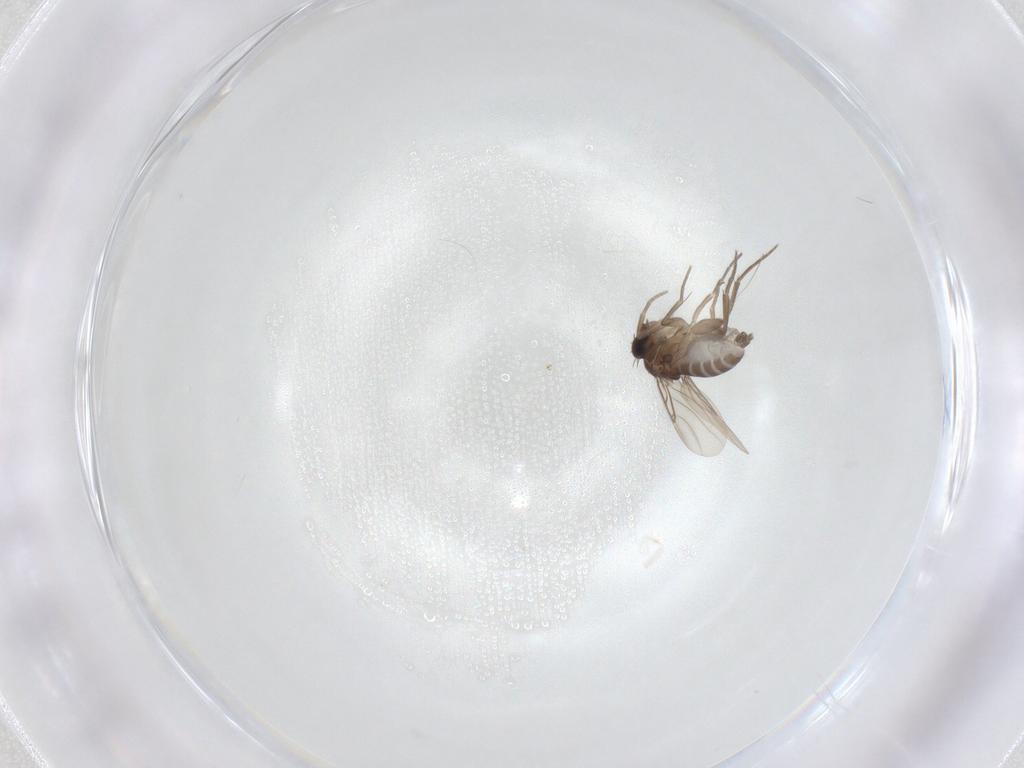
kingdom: Animalia
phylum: Arthropoda
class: Insecta
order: Diptera
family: Phoridae
